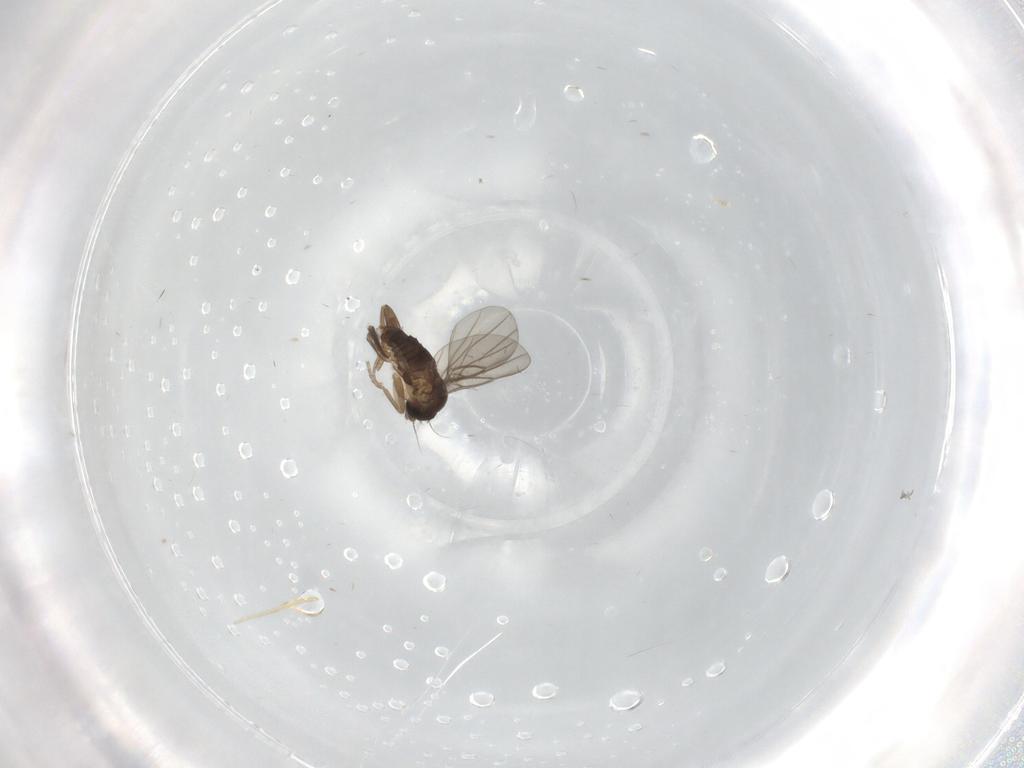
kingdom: Animalia
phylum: Arthropoda
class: Insecta
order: Diptera
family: Cecidomyiidae
